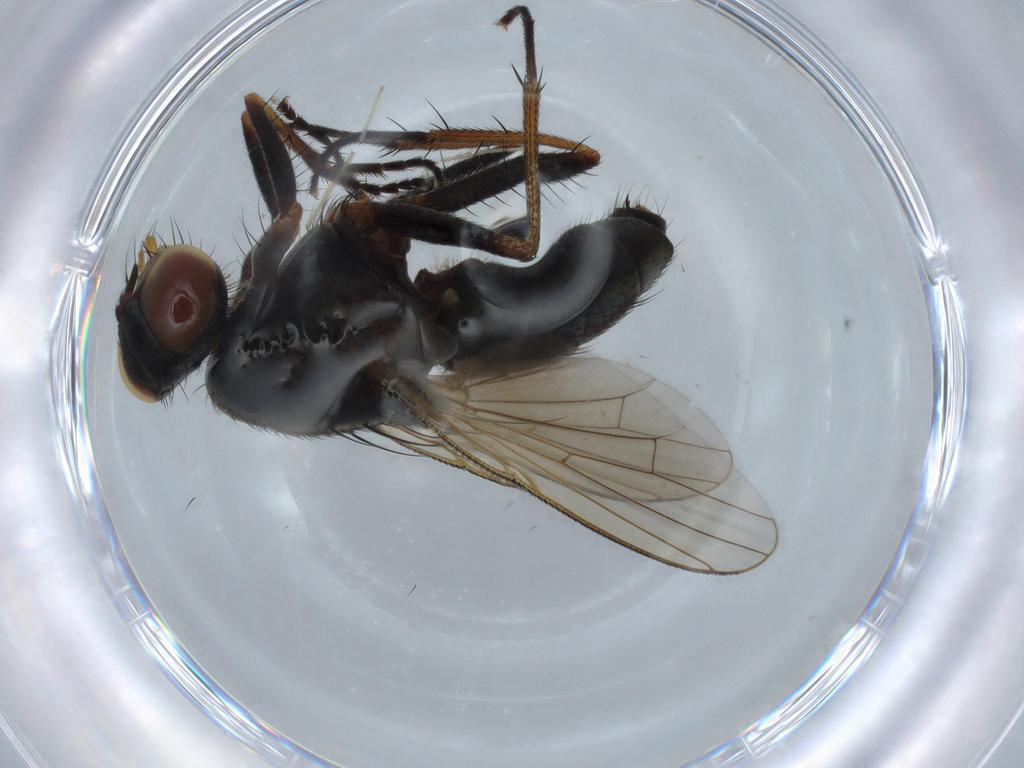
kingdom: Animalia
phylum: Arthropoda
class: Insecta
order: Diptera
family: Muscidae
